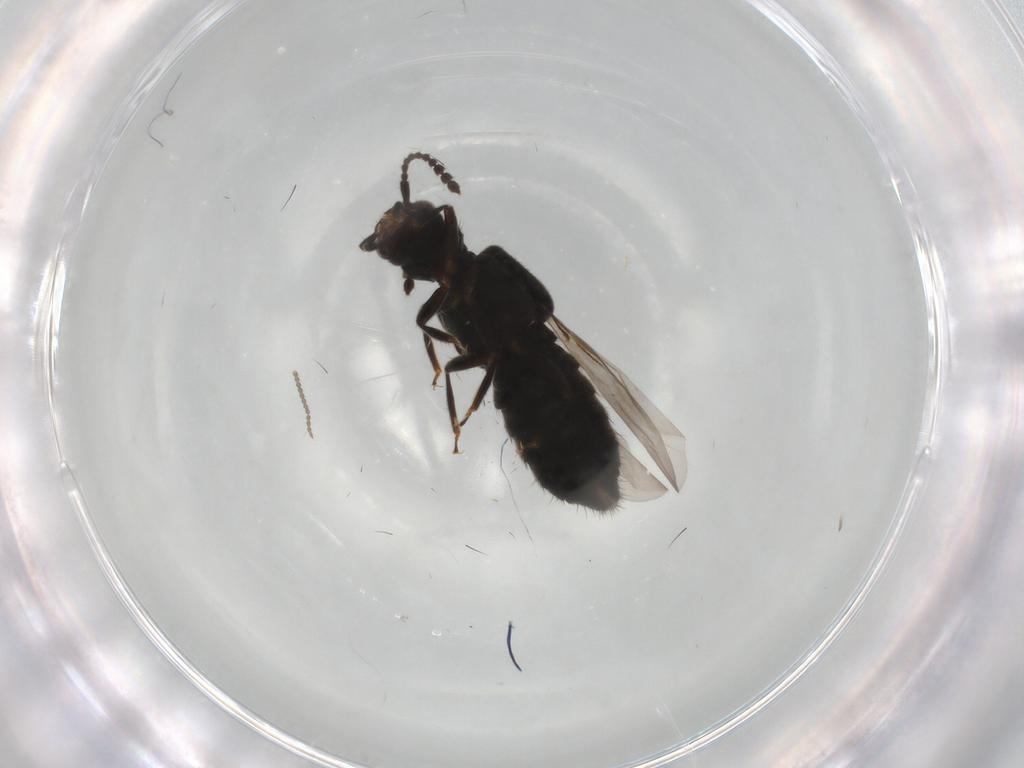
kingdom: Animalia
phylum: Arthropoda
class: Insecta
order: Coleoptera
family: Staphylinidae
